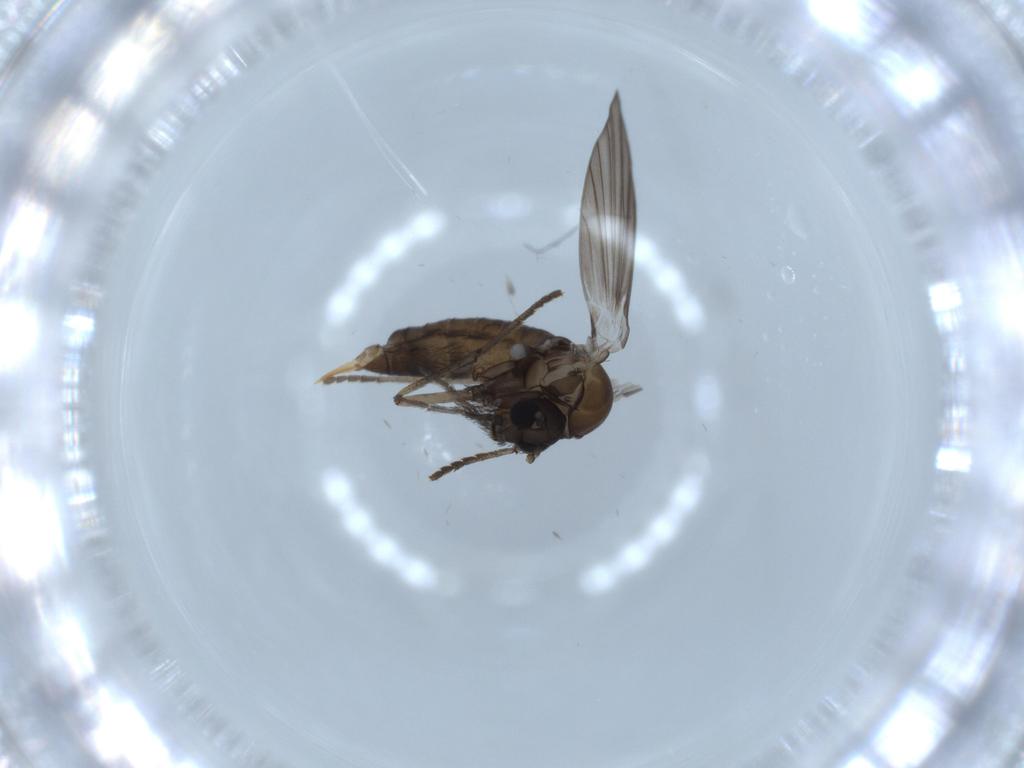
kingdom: Animalia
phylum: Arthropoda
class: Insecta
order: Diptera
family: Psychodidae
